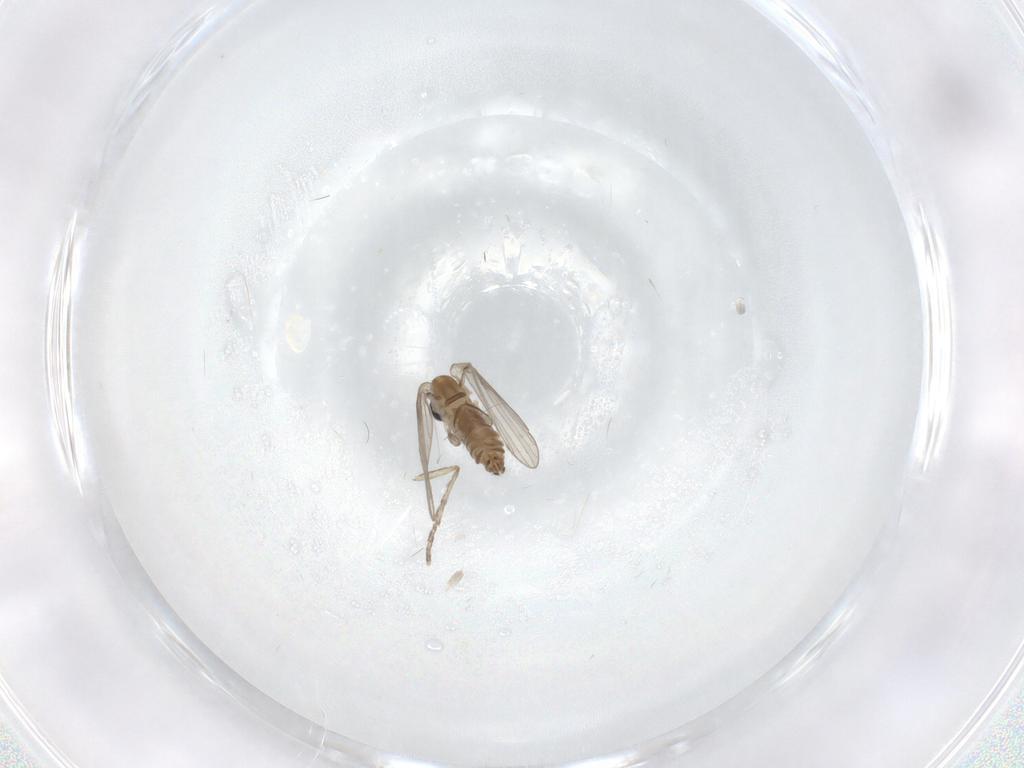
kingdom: Animalia
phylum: Arthropoda
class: Insecta
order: Diptera
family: Psychodidae
